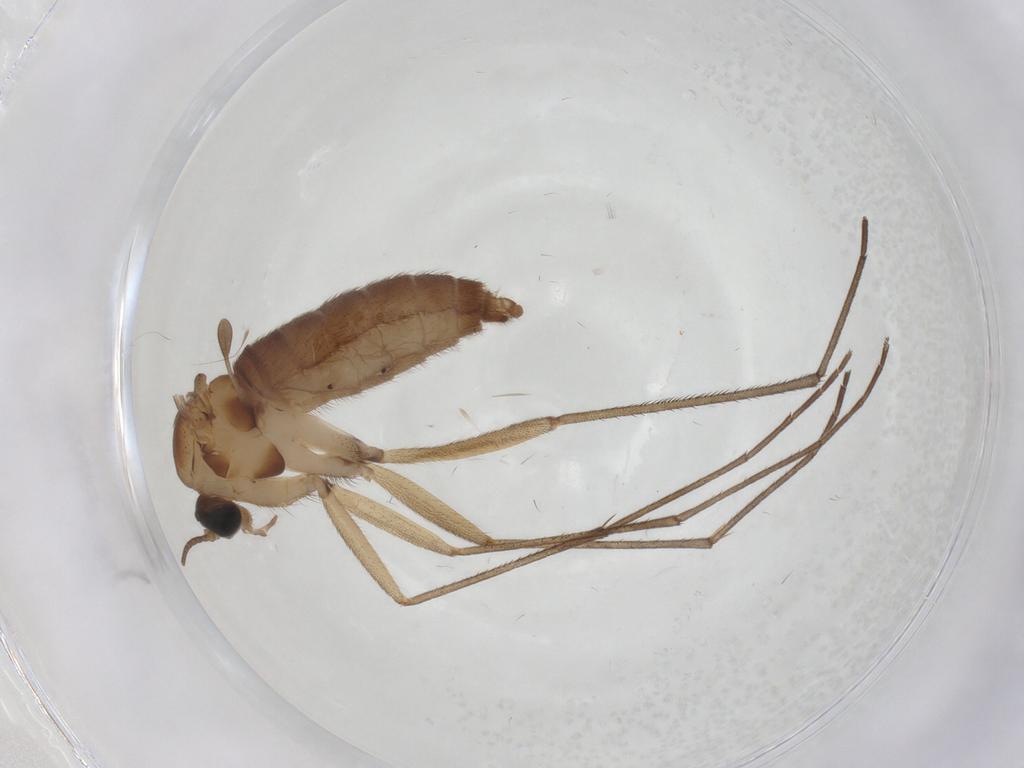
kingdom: Animalia
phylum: Arthropoda
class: Insecta
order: Diptera
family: Sciaridae
